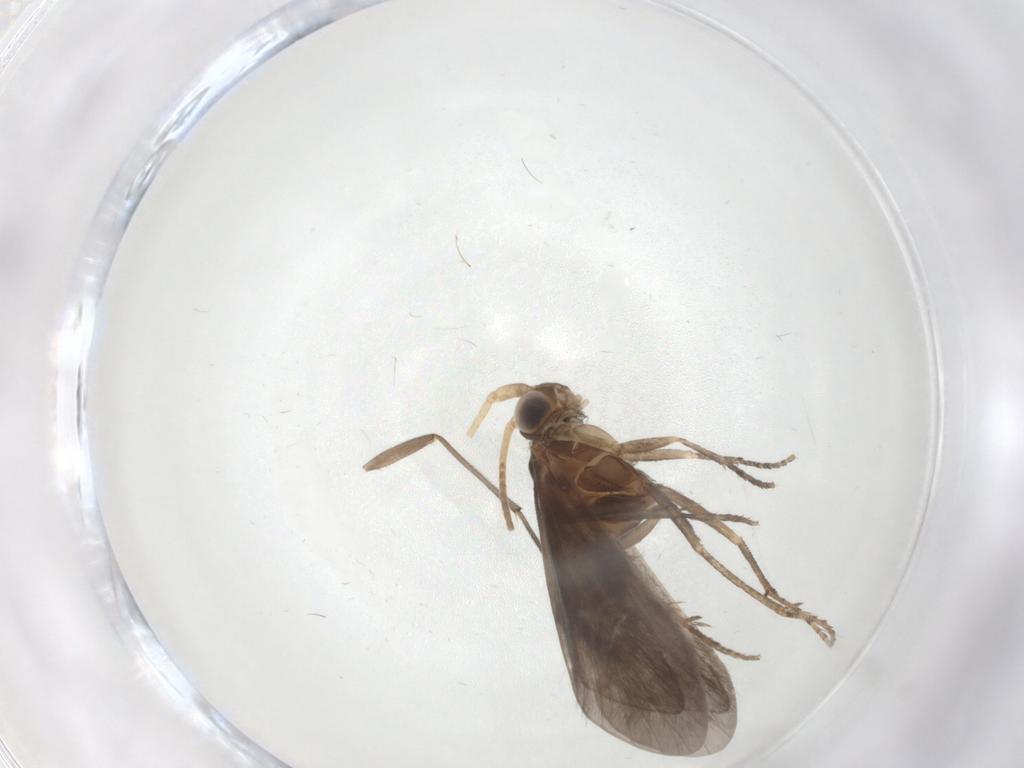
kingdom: Animalia
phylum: Arthropoda
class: Insecta
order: Trichoptera
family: Helicopsychidae
